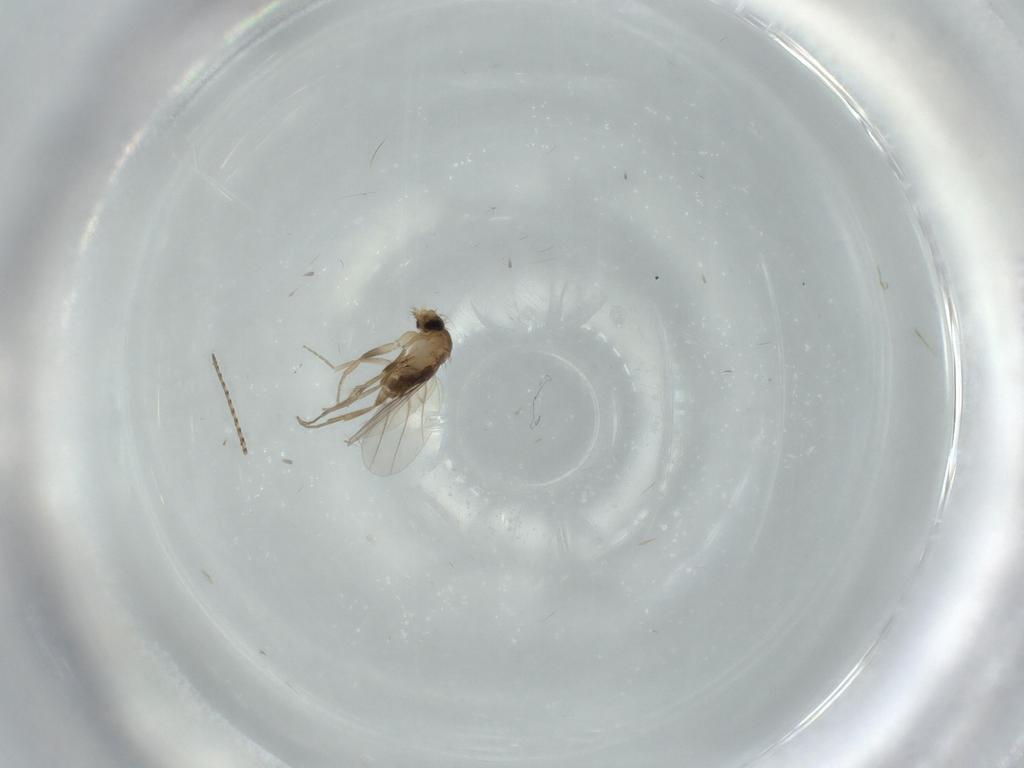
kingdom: Animalia
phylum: Arthropoda
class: Insecta
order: Diptera
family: Phoridae
